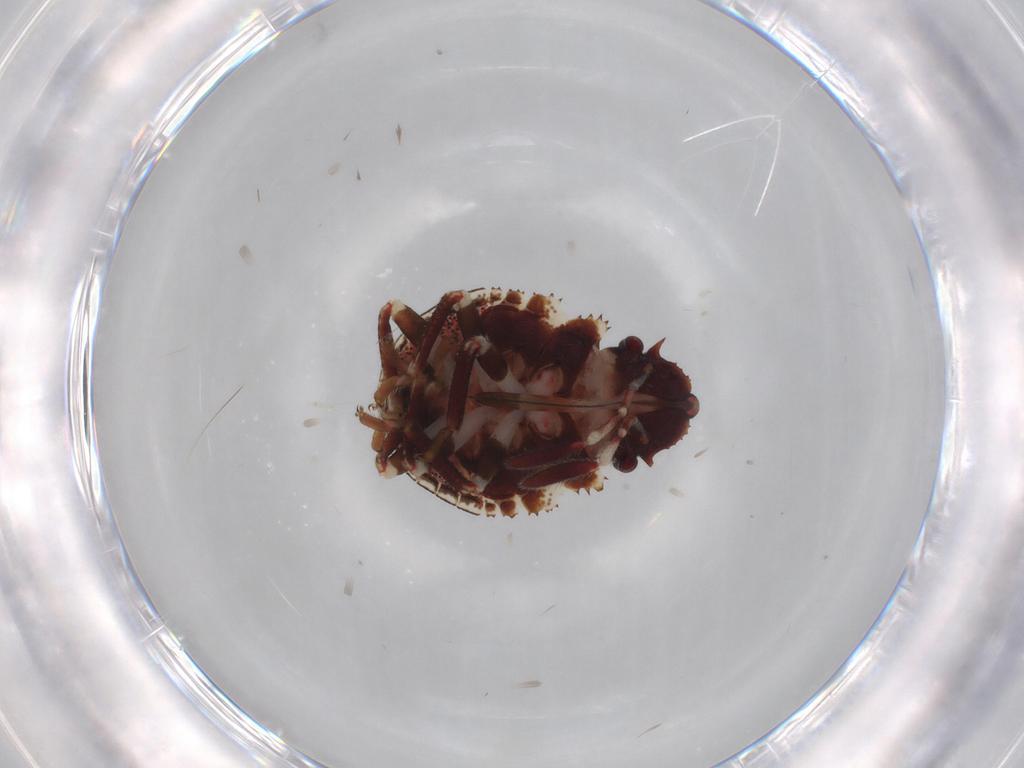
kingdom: Animalia
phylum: Arthropoda
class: Insecta
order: Hemiptera
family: Scutelleridae
